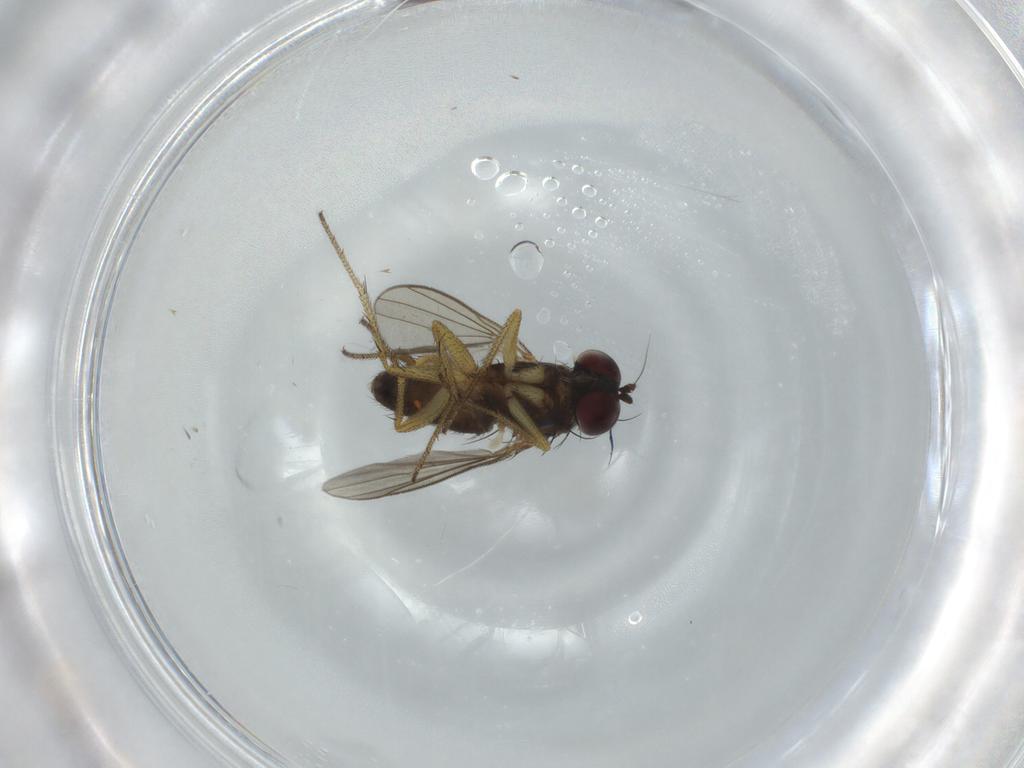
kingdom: Animalia
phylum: Arthropoda
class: Insecta
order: Diptera
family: Dolichopodidae
